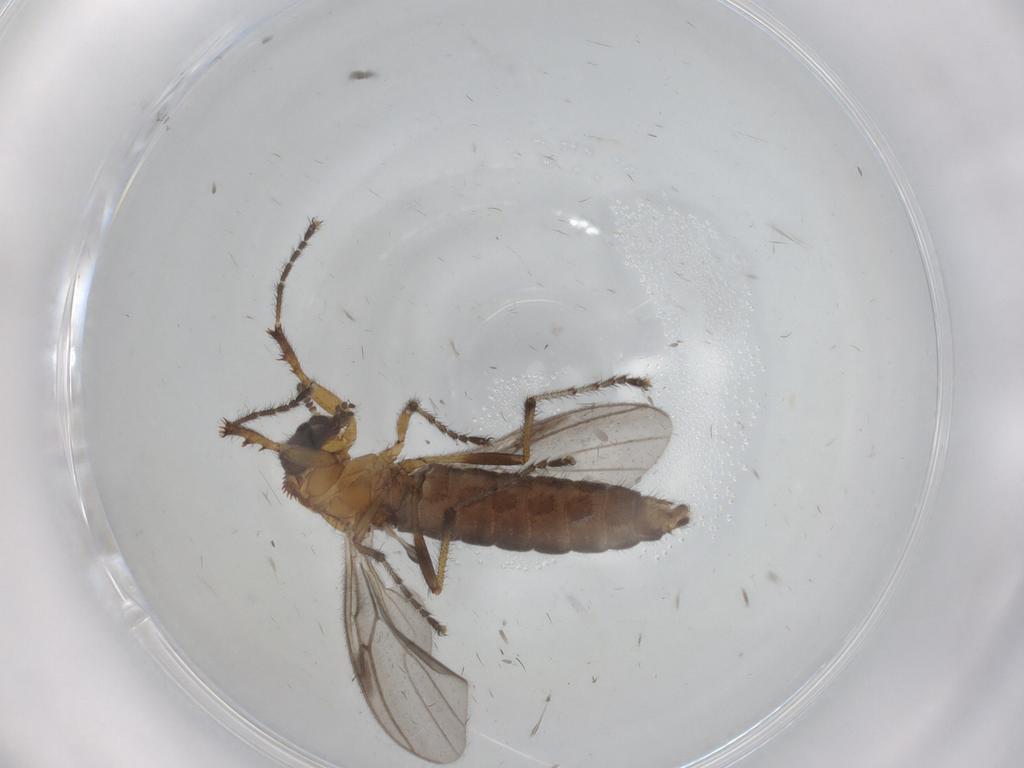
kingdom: Animalia
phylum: Arthropoda
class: Insecta
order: Diptera
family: Bibionidae
